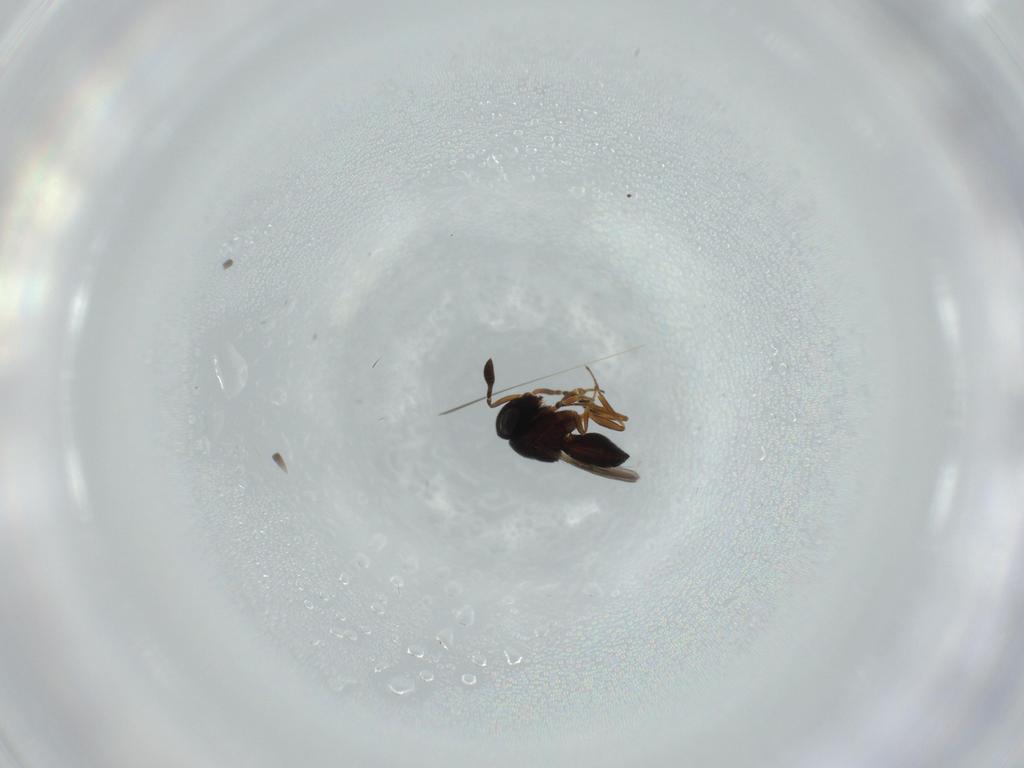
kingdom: Animalia
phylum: Arthropoda
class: Insecta
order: Hymenoptera
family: Scelionidae
